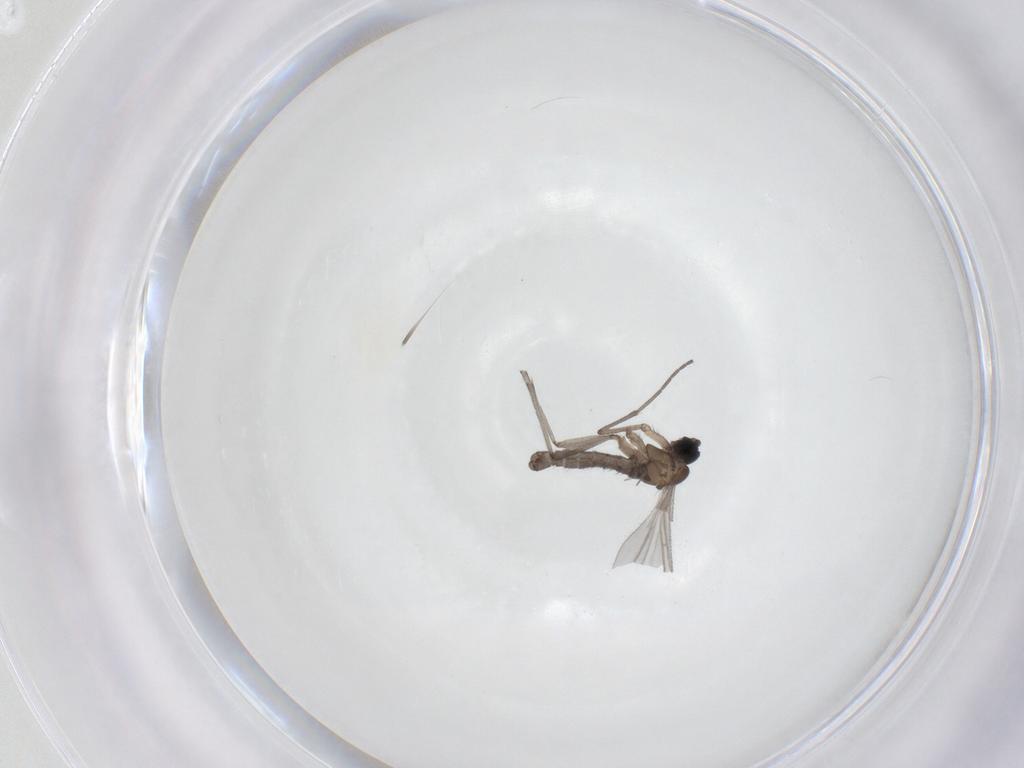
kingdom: Animalia
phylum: Arthropoda
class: Insecta
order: Diptera
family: Sciaridae
